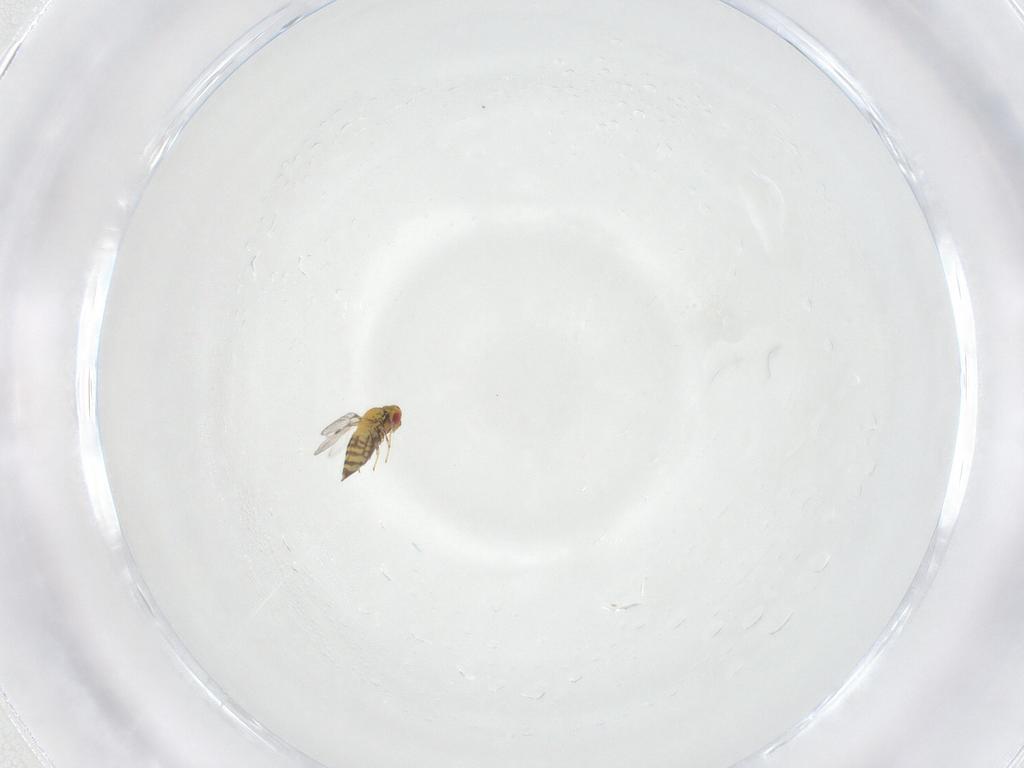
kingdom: Animalia
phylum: Arthropoda
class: Insecta
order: Hymenoptera
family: Trichogrammatidae
